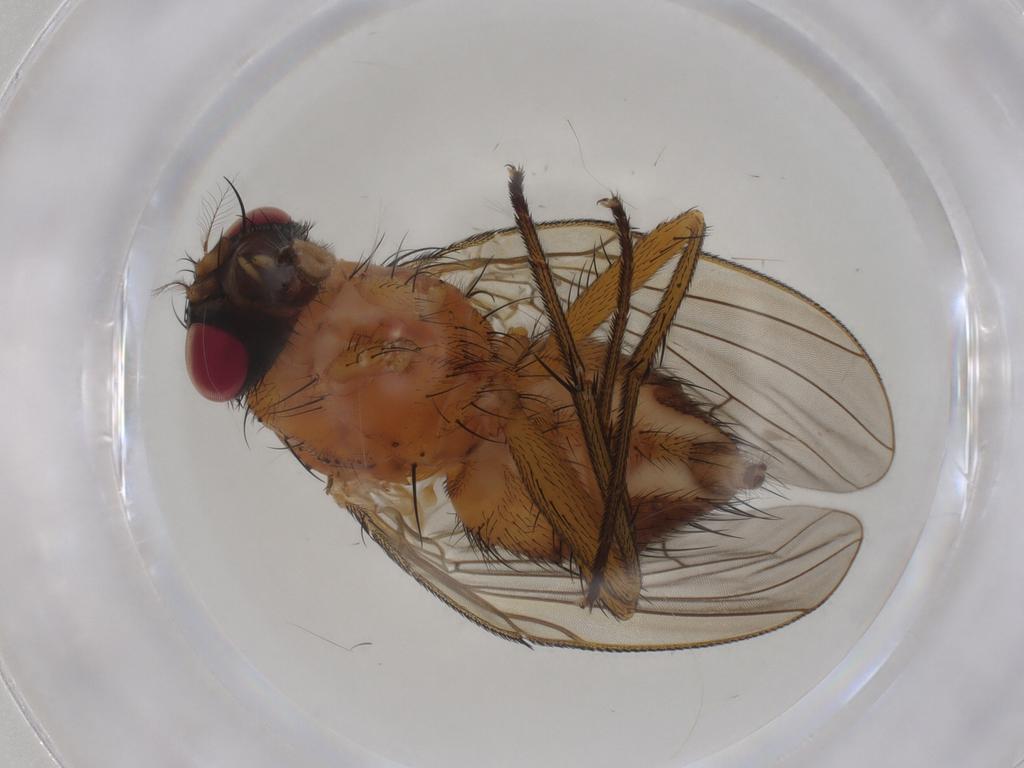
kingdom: Animalia
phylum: Arthropoda
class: Insecta
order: Diptera
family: Muscidae
